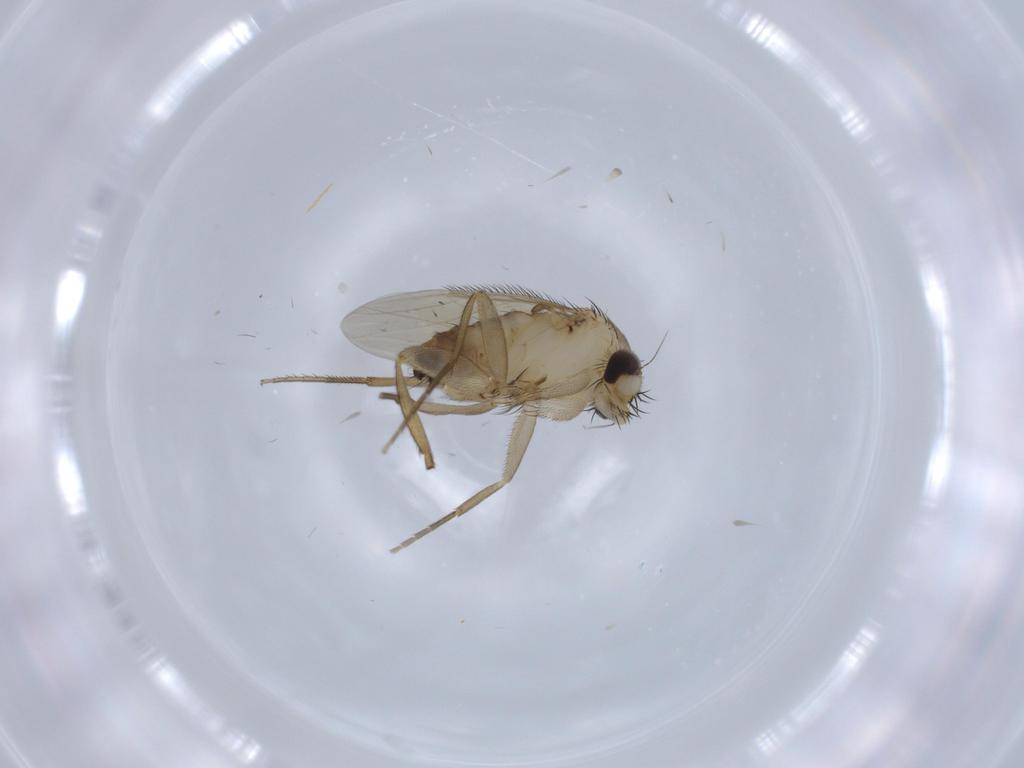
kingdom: Animalia
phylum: Arthropoda
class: Insecta
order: Diptera
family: Phoridae
